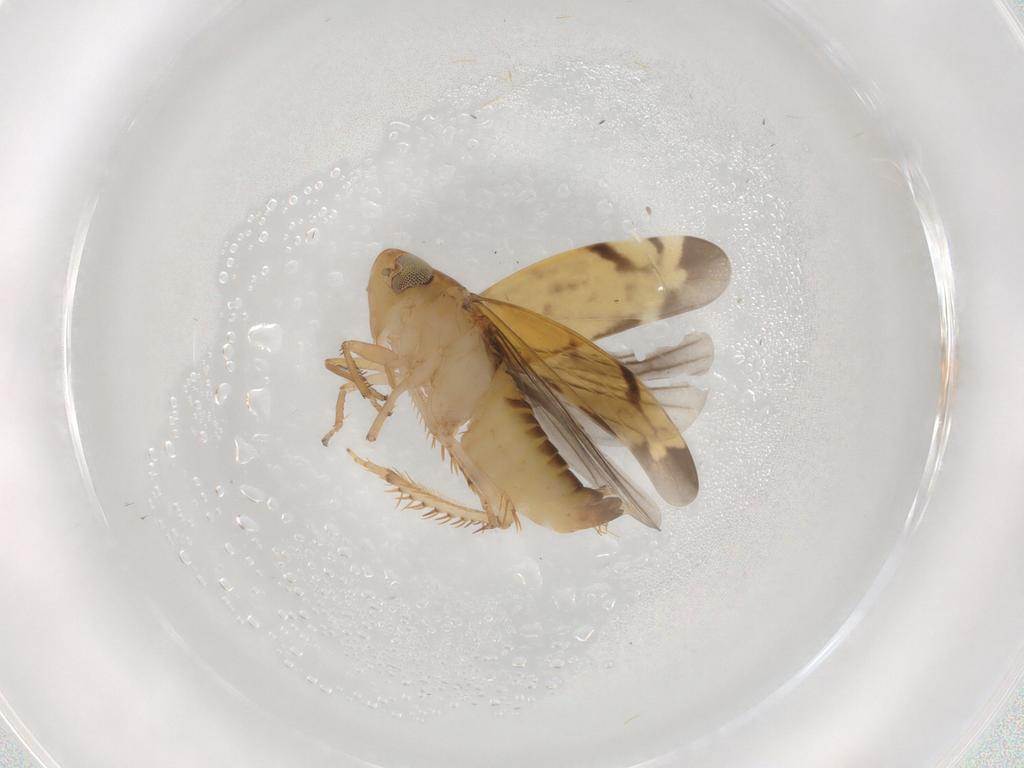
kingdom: Animalia
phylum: Arthropoda
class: Insecta
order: Hemiptera
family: Cicadellidae
